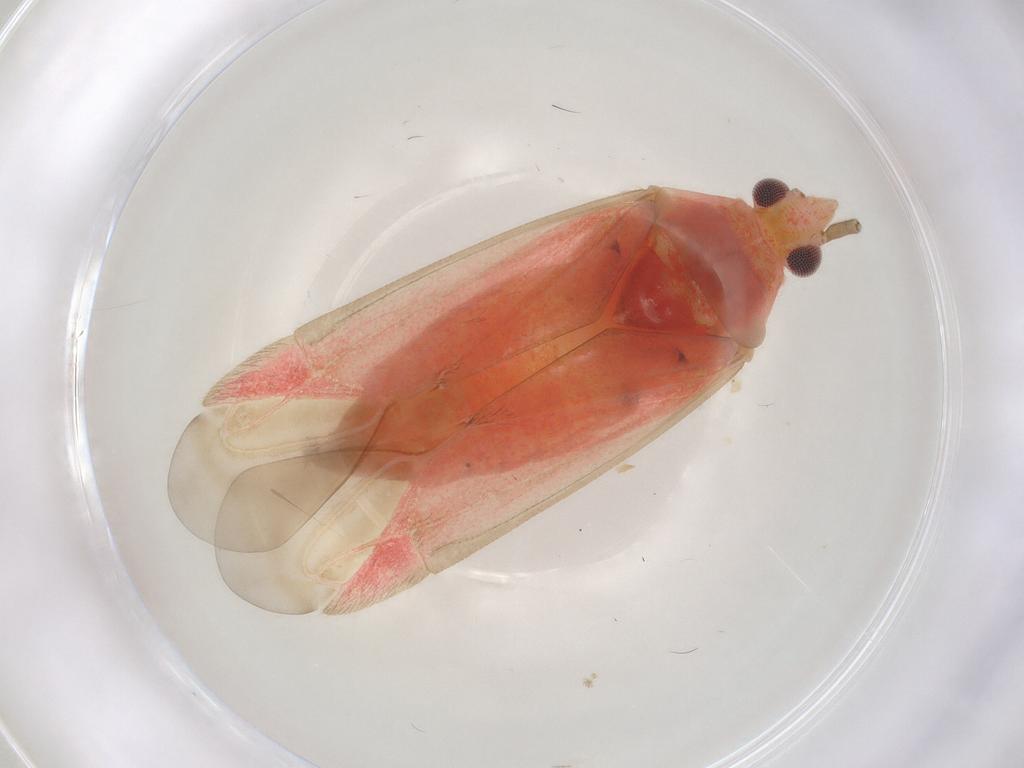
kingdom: Animalia
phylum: Arthropoda
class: Insecta
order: Hemiptera
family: Miridae
